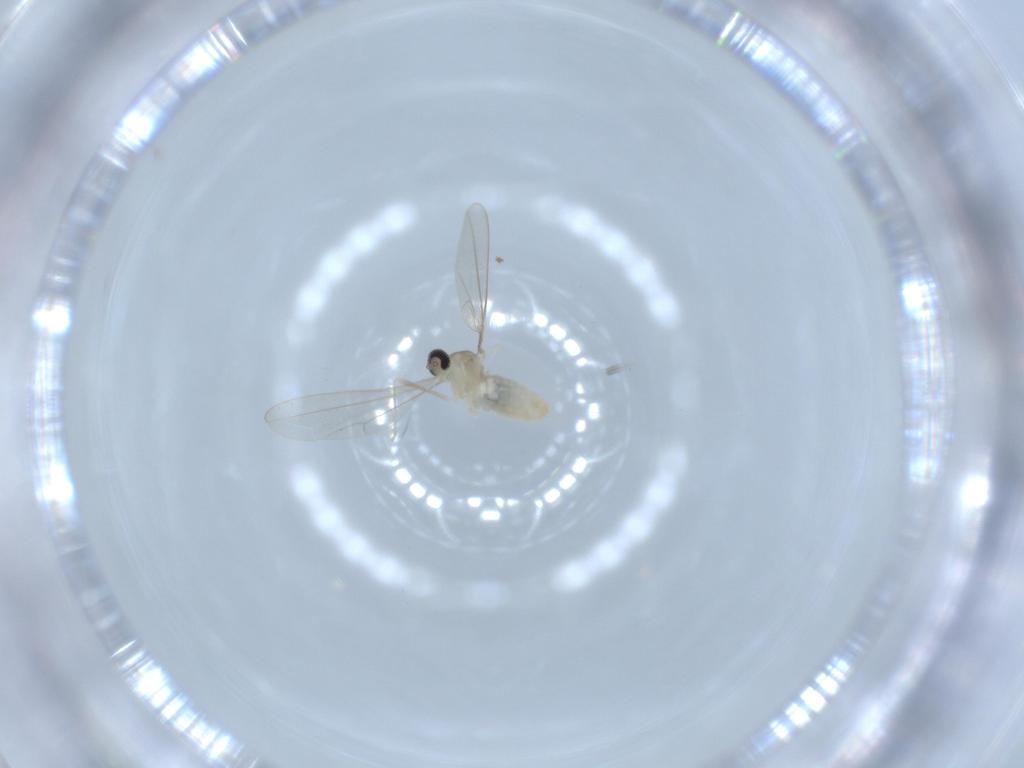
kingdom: Animalia
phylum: Arthropoda
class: Insecta
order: Diptera
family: Cecidomyiidae
